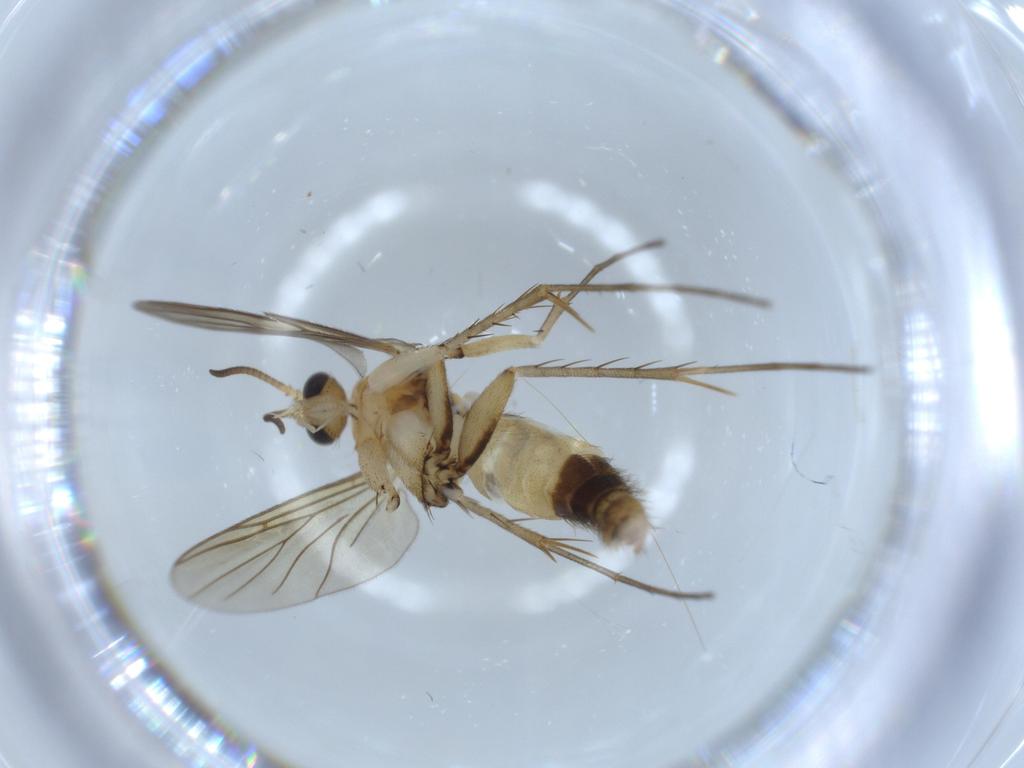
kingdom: Animalia
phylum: Arthropoda
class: Insecta
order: Diptera
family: Mycetophilidae
